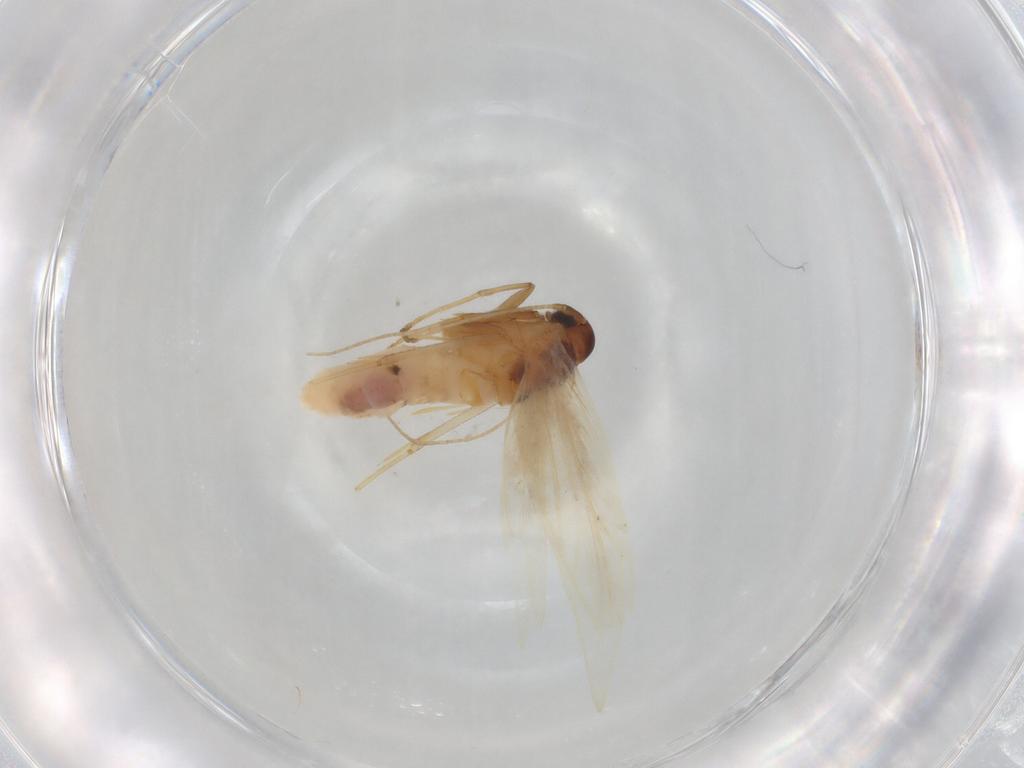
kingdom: Animalia
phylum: Arthropoda
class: Insecta
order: Lepidoptera
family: Gelechiidae
